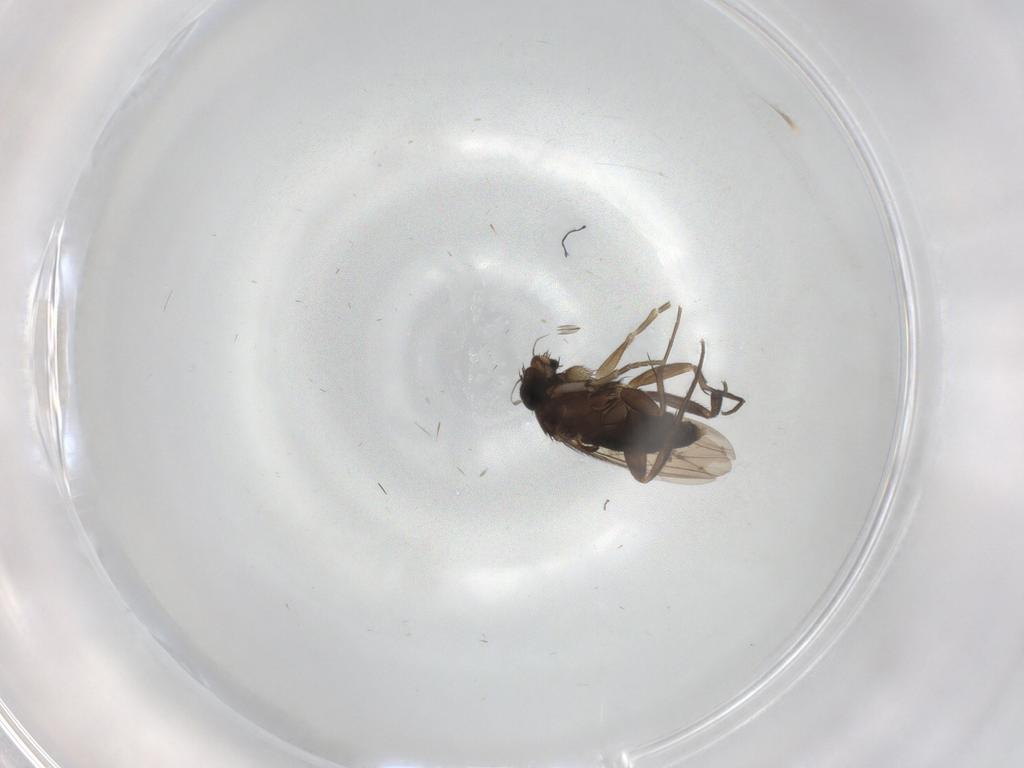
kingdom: Animalia
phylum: Arthropoda
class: Insecta
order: Diptera
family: Phoridae
